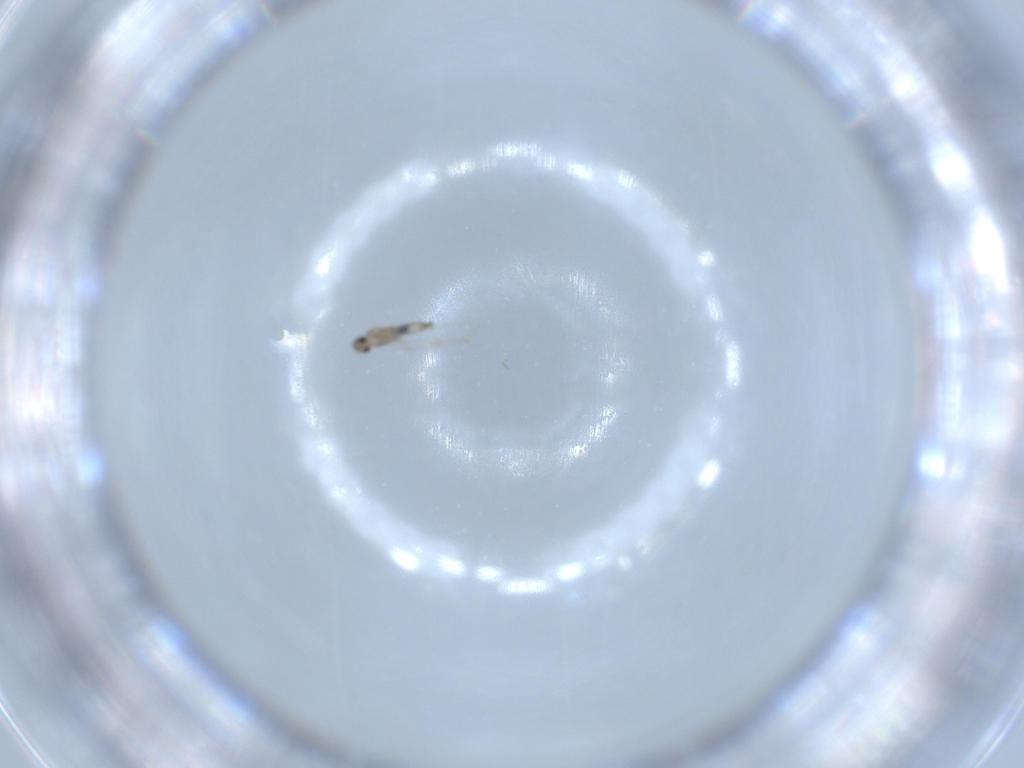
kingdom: Animalia
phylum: Arthropoda
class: Insecta
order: Diptera
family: Cecidomyiidae
